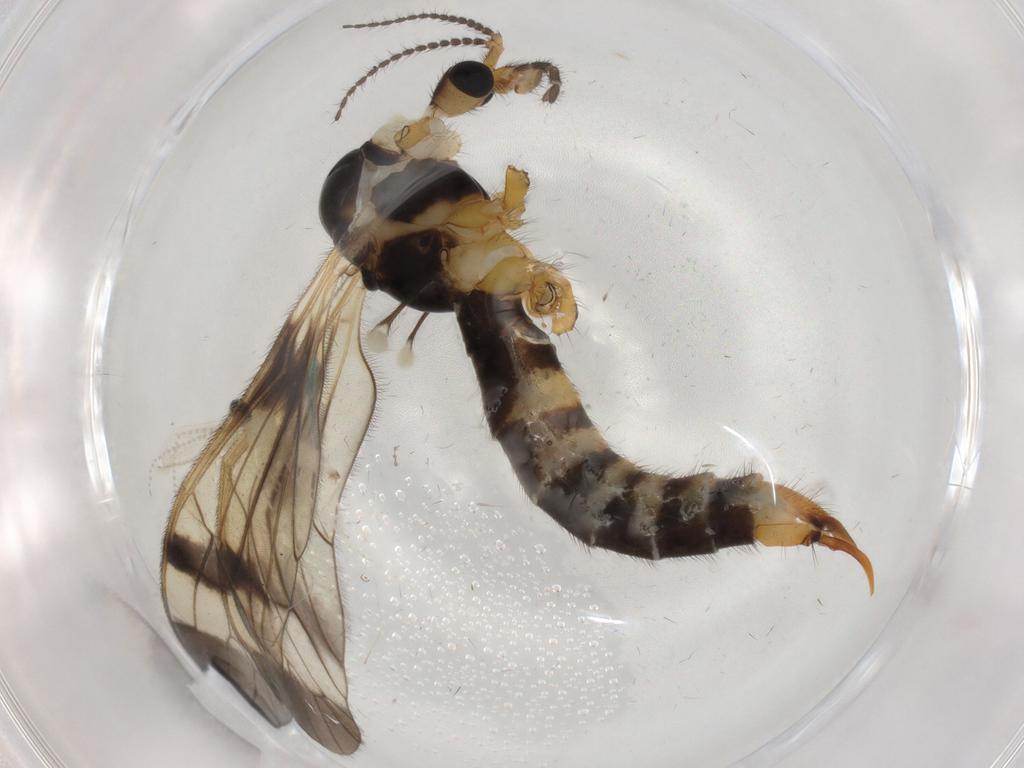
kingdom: Animalia
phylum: Arthropoda
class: Insecta
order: Diptera
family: Limoniidae
